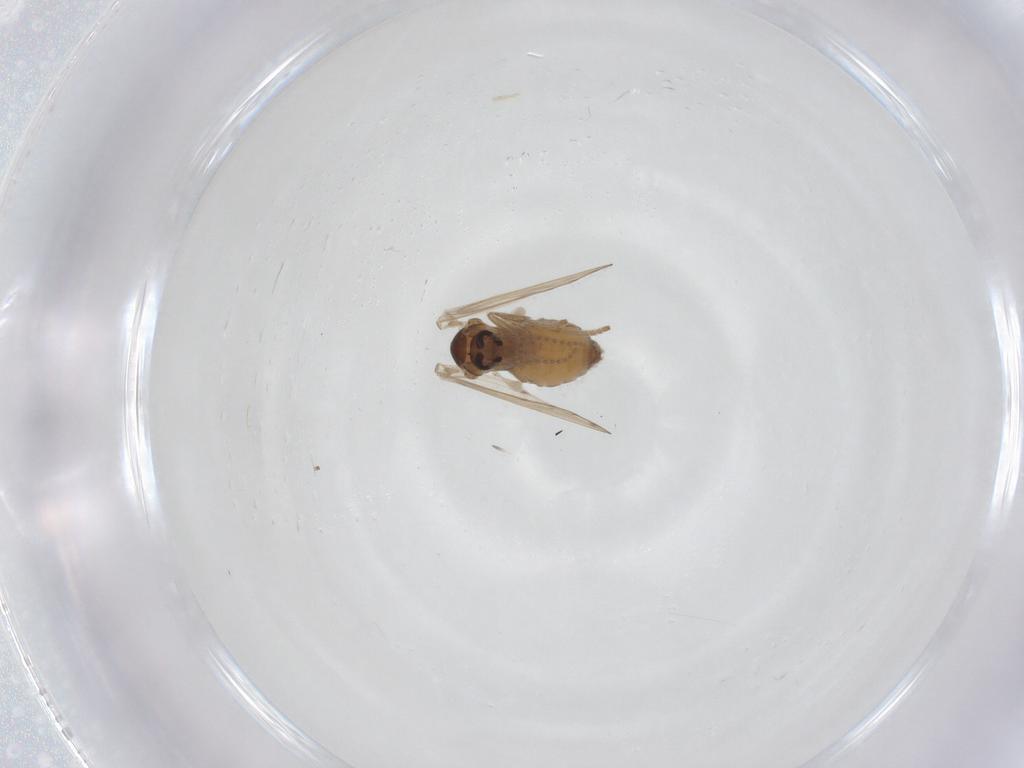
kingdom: Animalia
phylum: Arthropoda
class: Insecta
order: Diptera
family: Psychodidae
